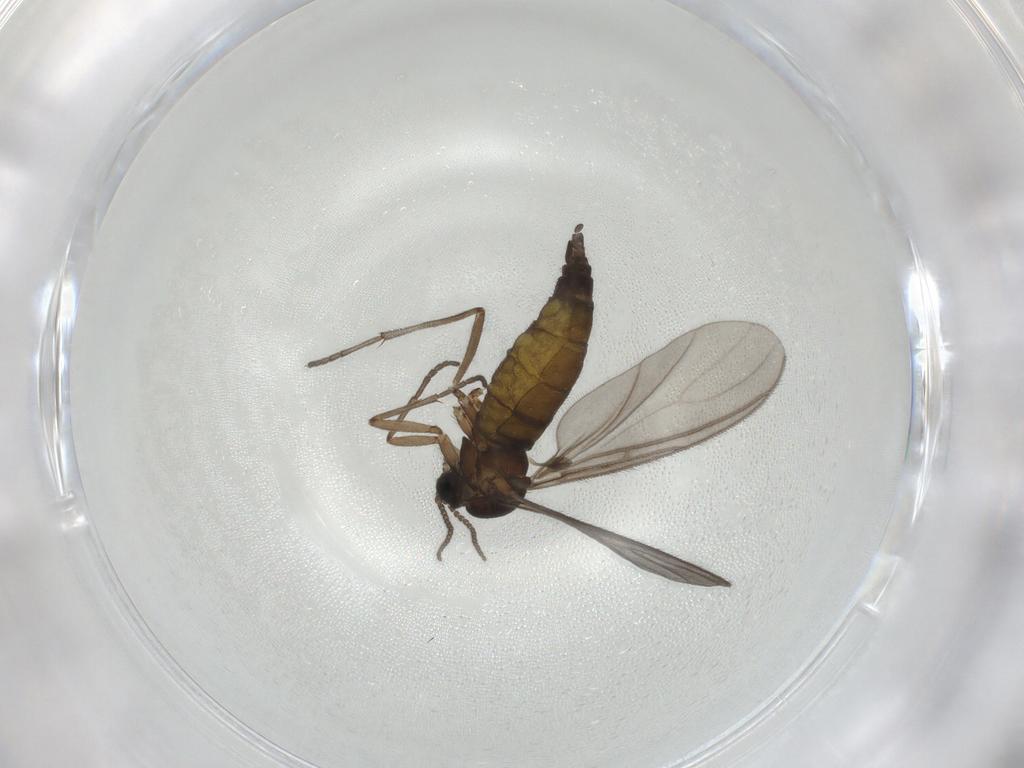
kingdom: Animalia
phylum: Arthropoda
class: Insecta
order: Diptera
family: Sciaridae
